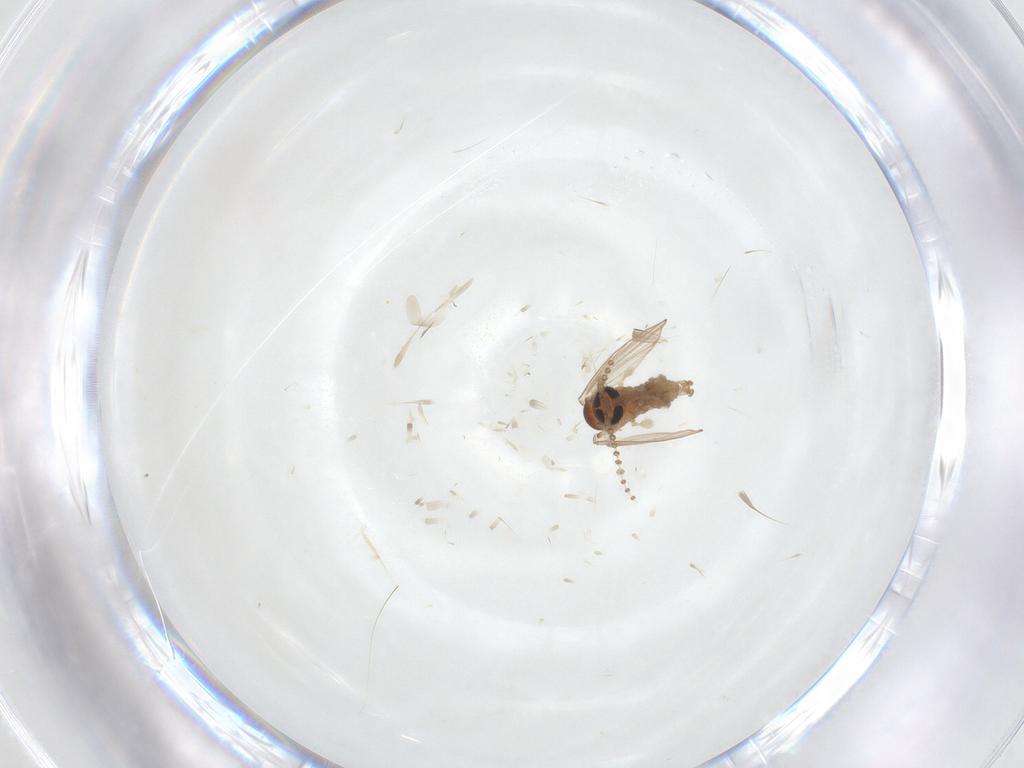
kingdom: Animalia
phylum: Arthropoda
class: Insecta
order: Diptera
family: Psychodidae
